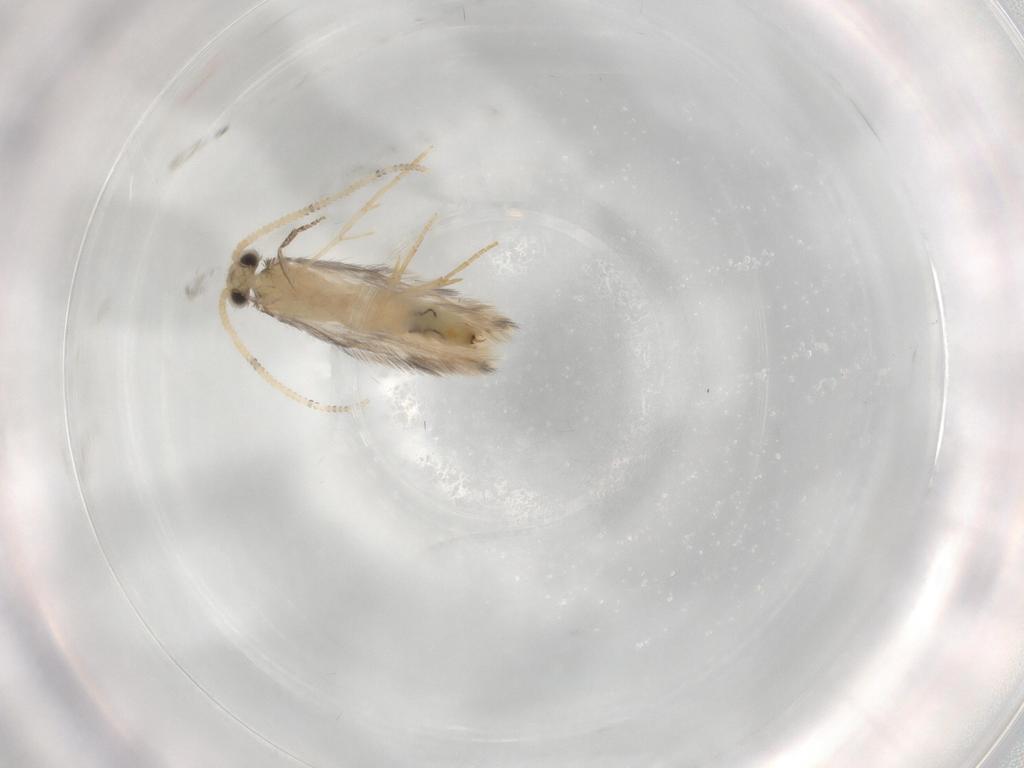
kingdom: Animalia
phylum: Arthropoda
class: Insecta
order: Trichoptera
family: Hydroptilidae
